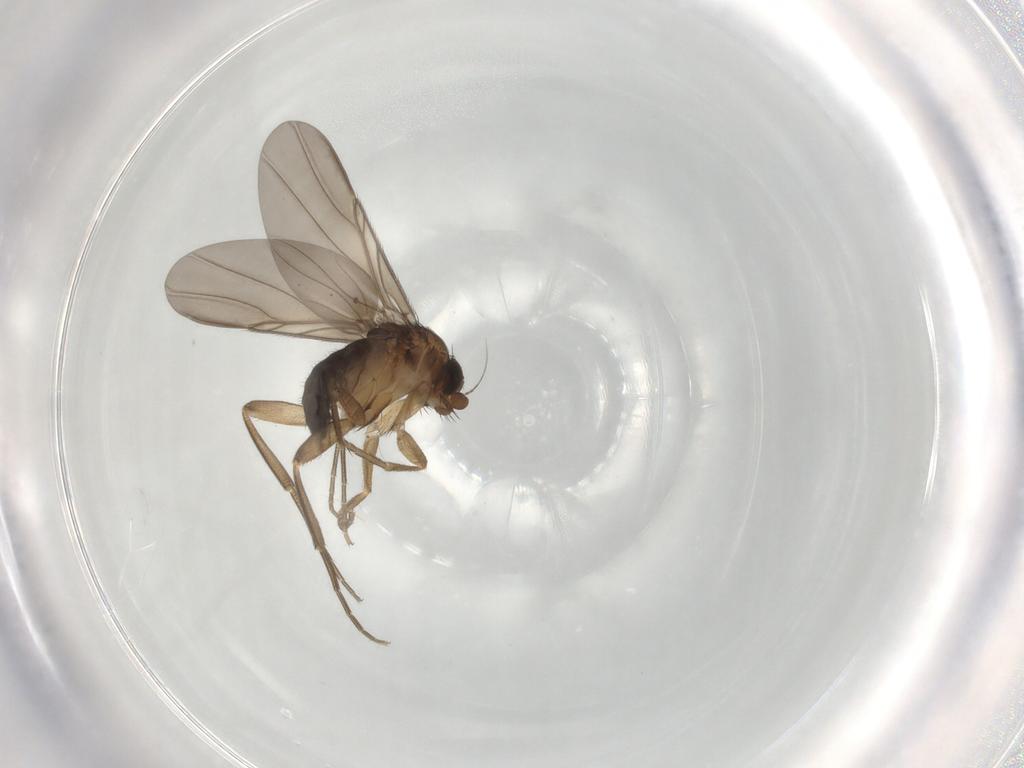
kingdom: Animalia
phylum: Arthropoda
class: Insecta
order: Diptera
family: Phoridae
